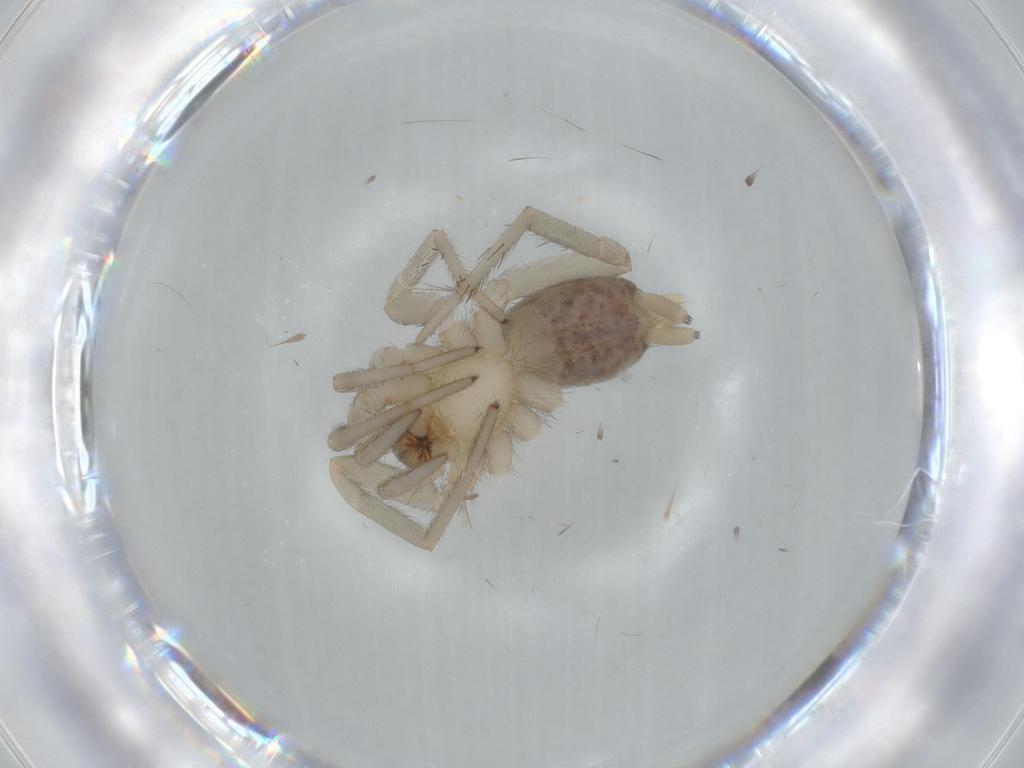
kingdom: Animalia
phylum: Arthropoda
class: Arachnida
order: Araneae
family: Gnaphosidae
